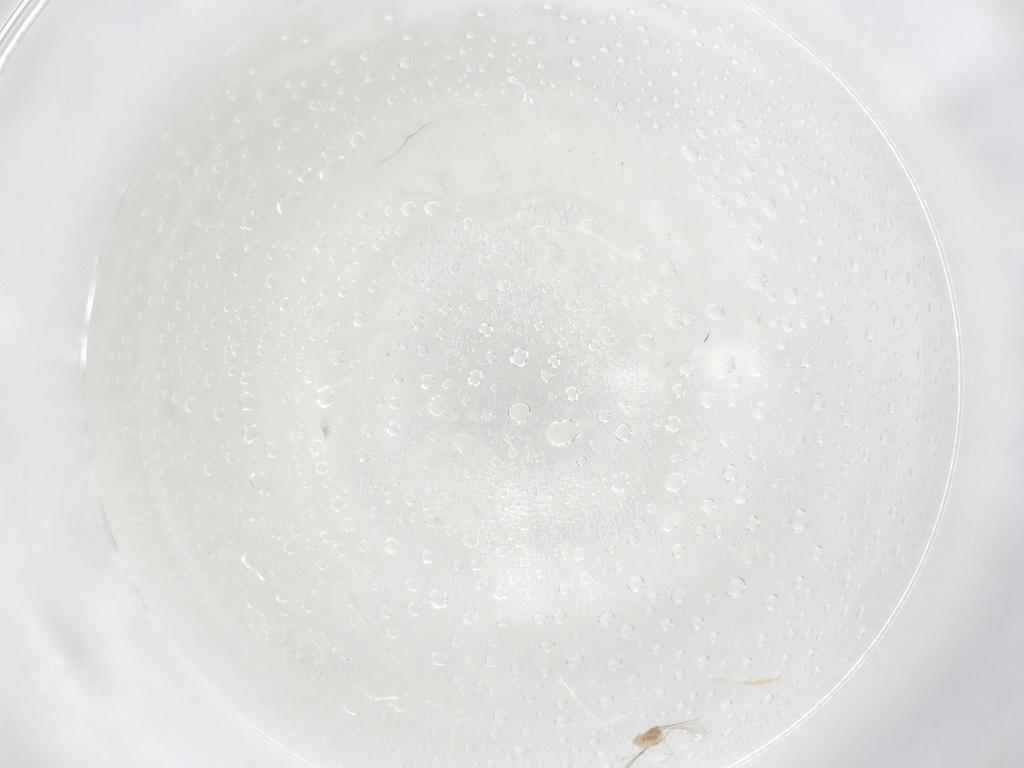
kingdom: Animalia
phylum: Arthropoda
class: Insecta
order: Diptera
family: Cecidomyiidae
